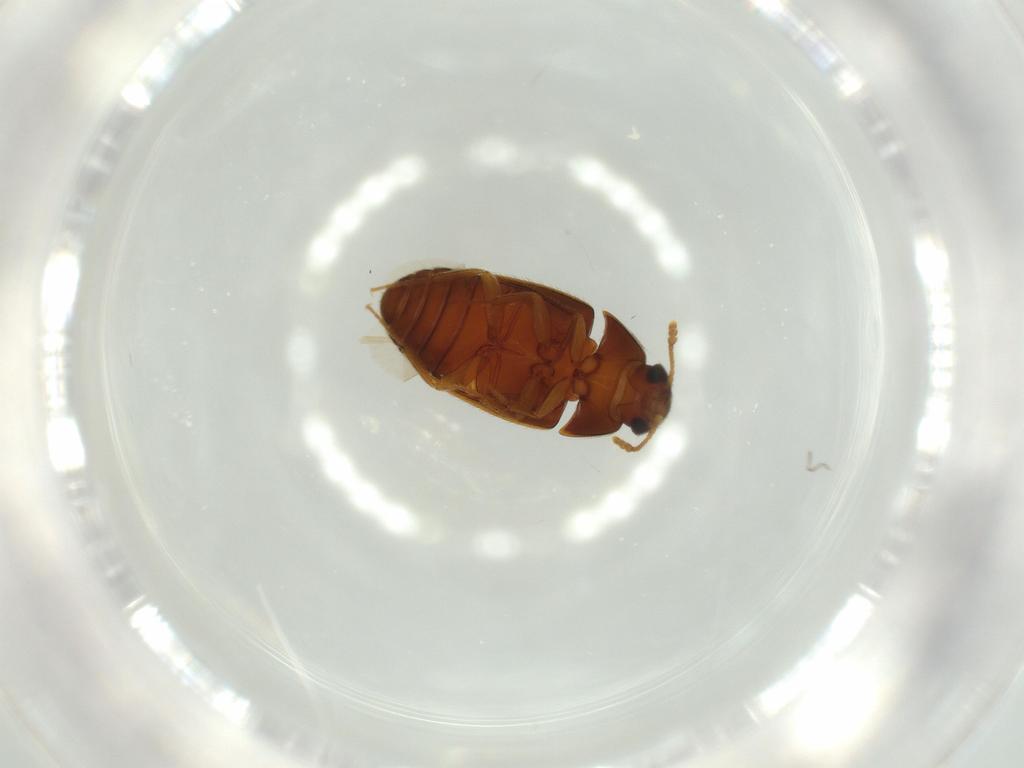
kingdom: Animalia
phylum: Arthropoda
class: Insecta
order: Coleoptera
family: Mycetophagidae
